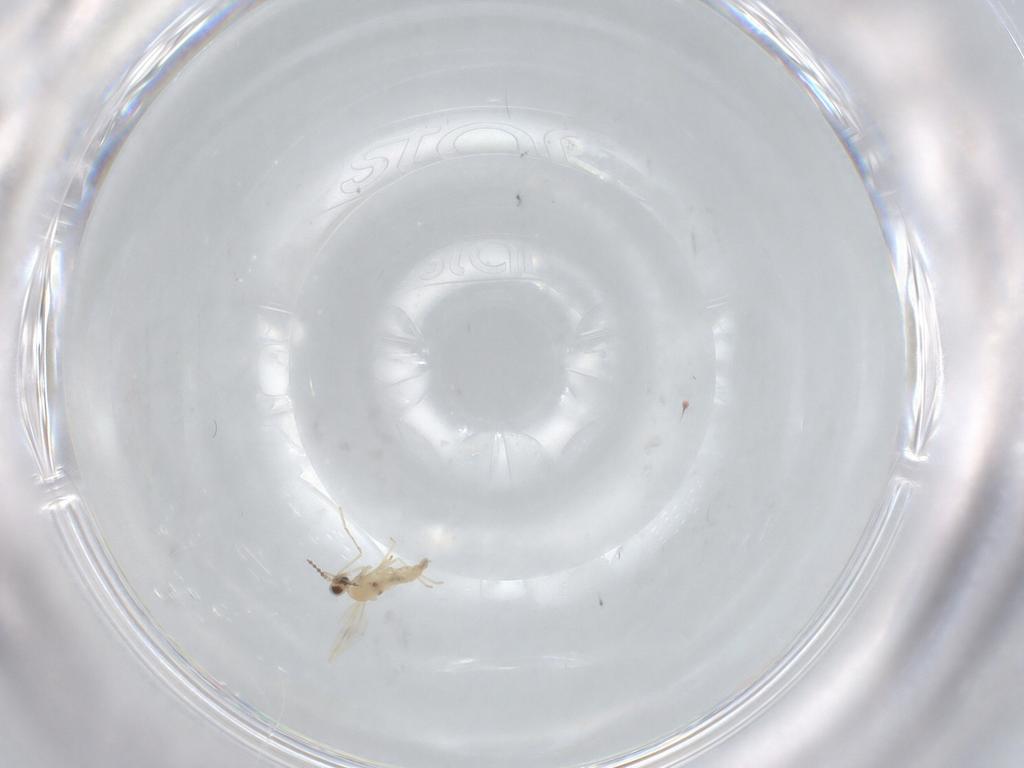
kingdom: Animalia
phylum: Arthropoda
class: Insecta
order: Diptera
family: Cecidomyiidae
